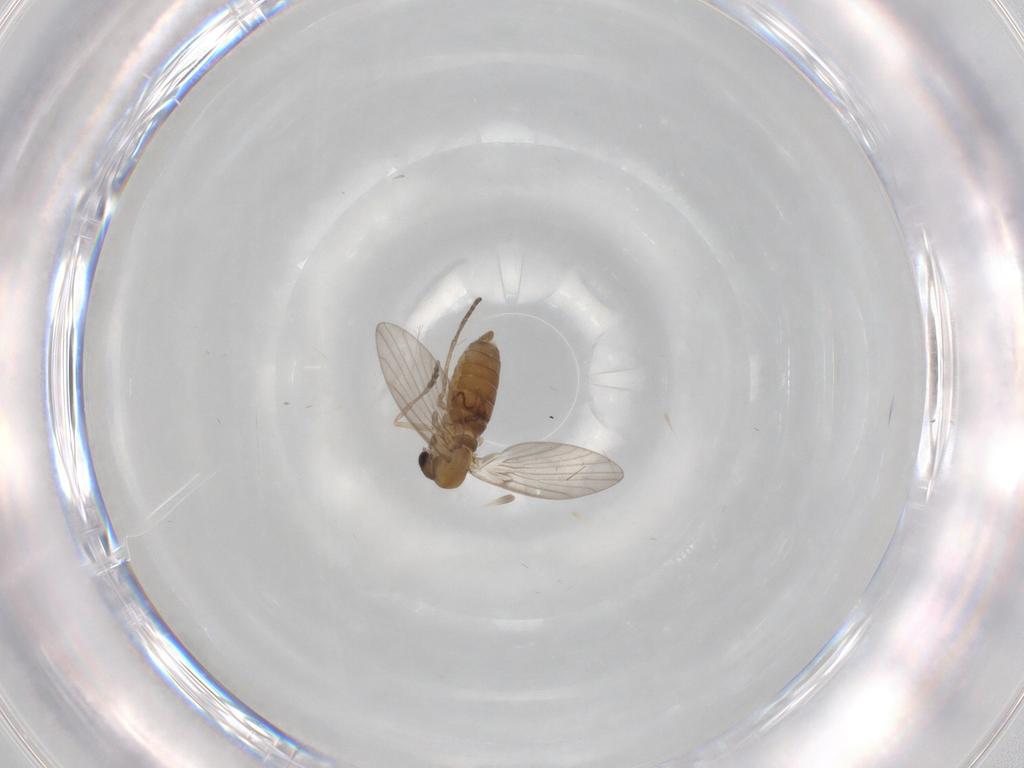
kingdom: Animalia
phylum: Arthropoda
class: Insecta
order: Diptera
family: Psychodidae
